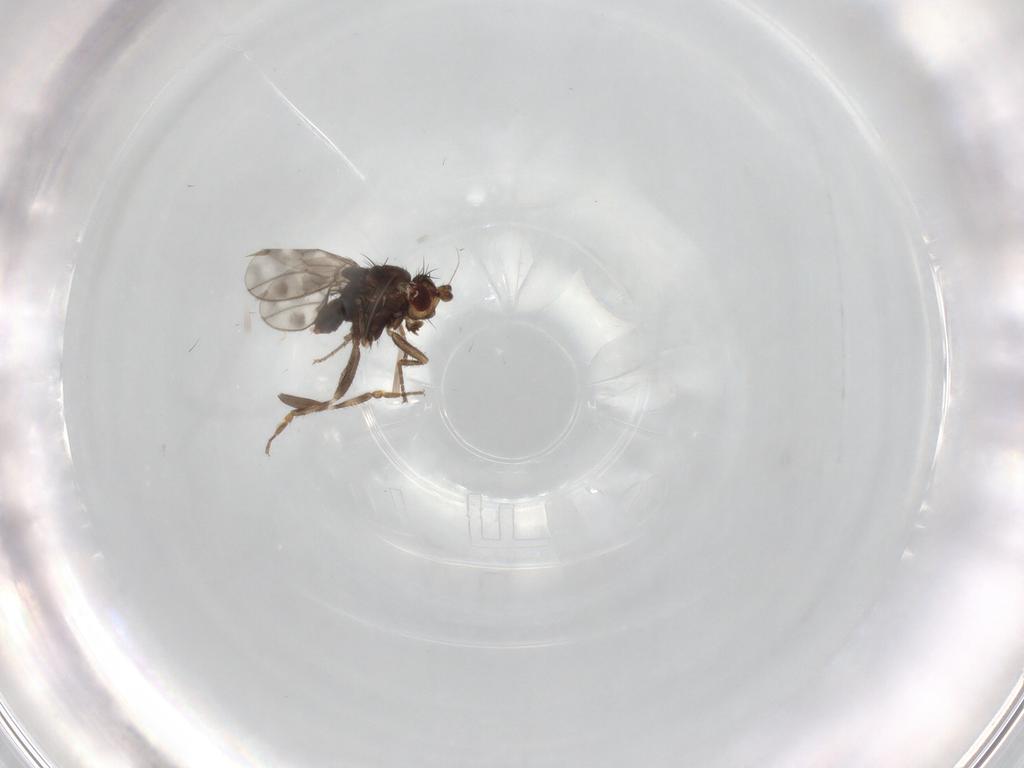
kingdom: Animalia
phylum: Arthropoda
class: Insecta
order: Diptera
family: Sphaeroceridae
